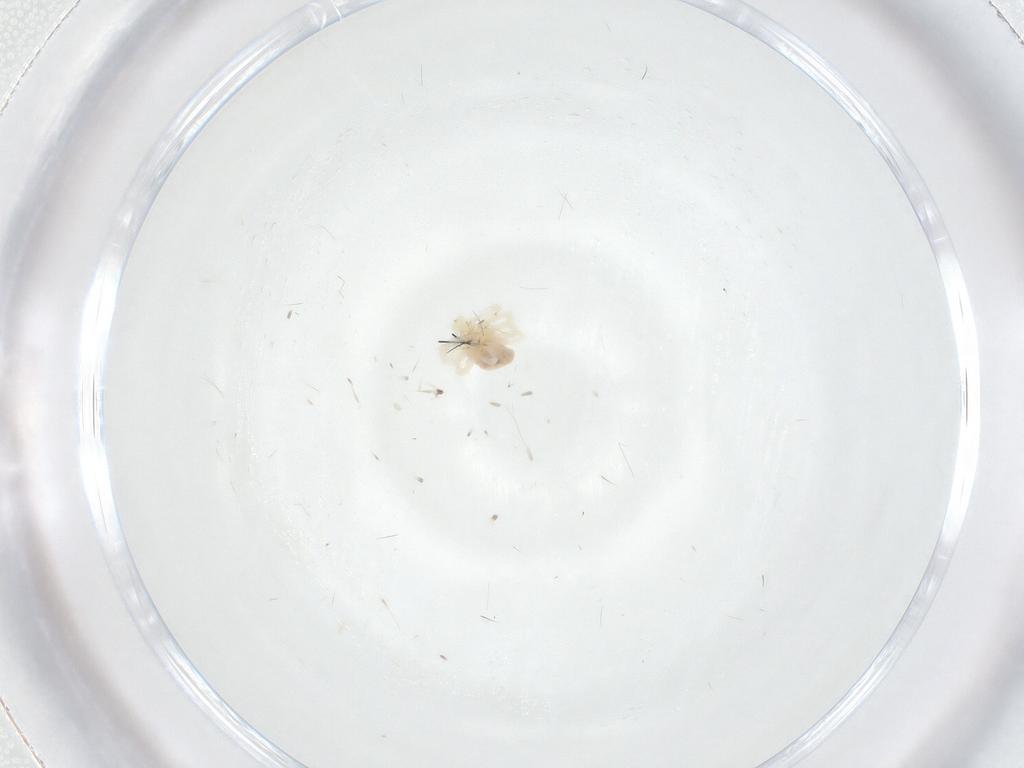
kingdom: Animalia
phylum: Arthropoda
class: Arachnida
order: Trombidiformes
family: Anystidae
